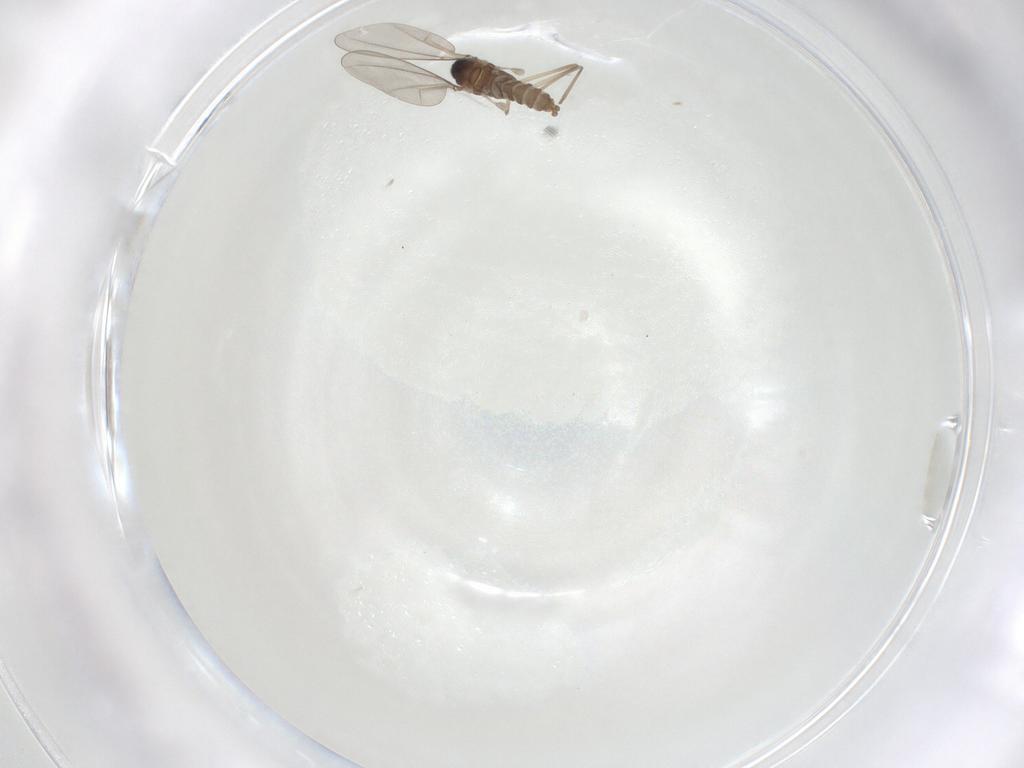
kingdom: Animalia
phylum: Arthropoda
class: Insecta
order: Diptera
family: Cecidomyiidae
